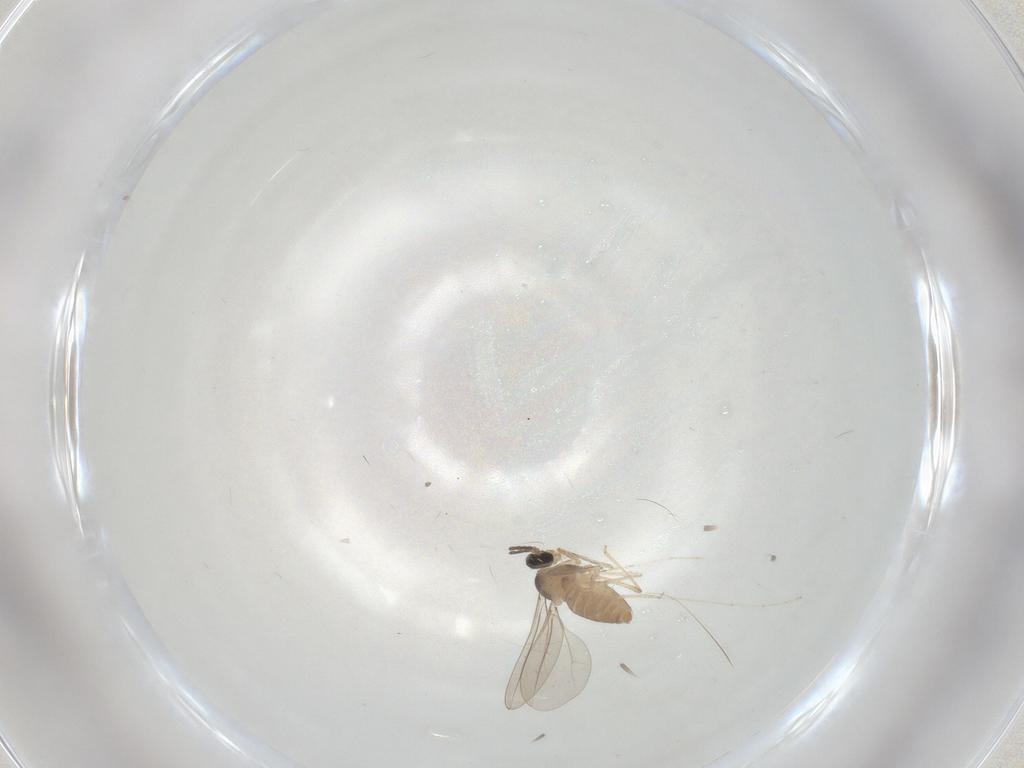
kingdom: Animalia
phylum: Arthropoda
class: Insecta
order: Diptera
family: Cecidomyiidae
